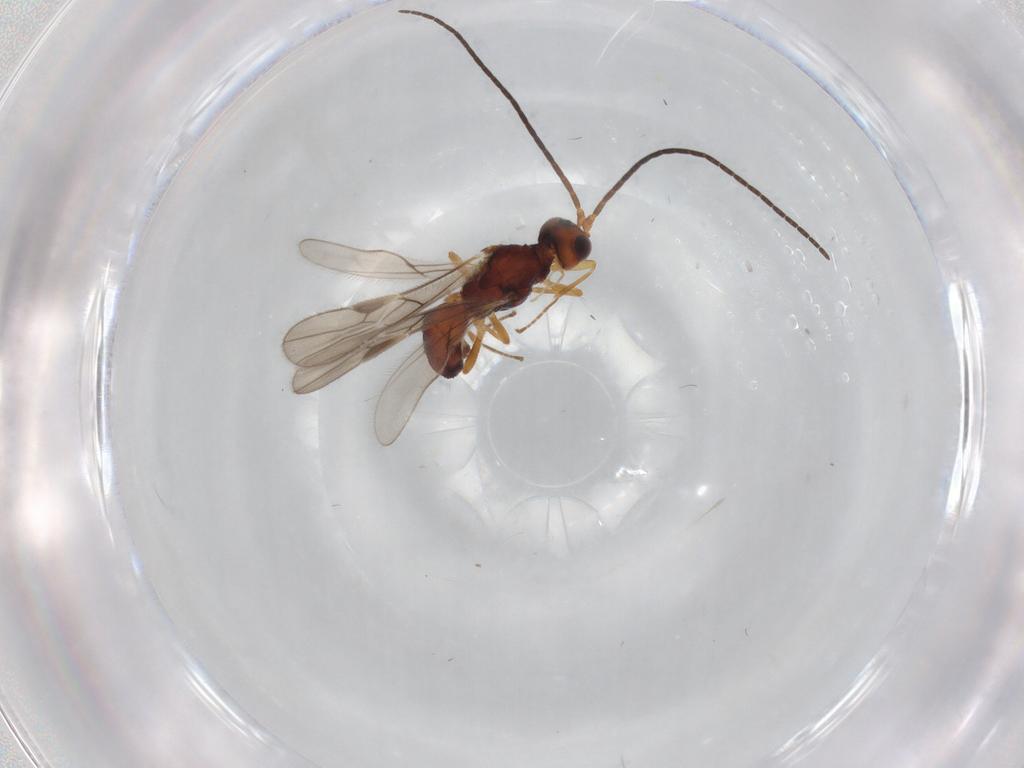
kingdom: Animalia
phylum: Arthropoda
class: Insecta
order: Hymenoptera
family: Braconidae
